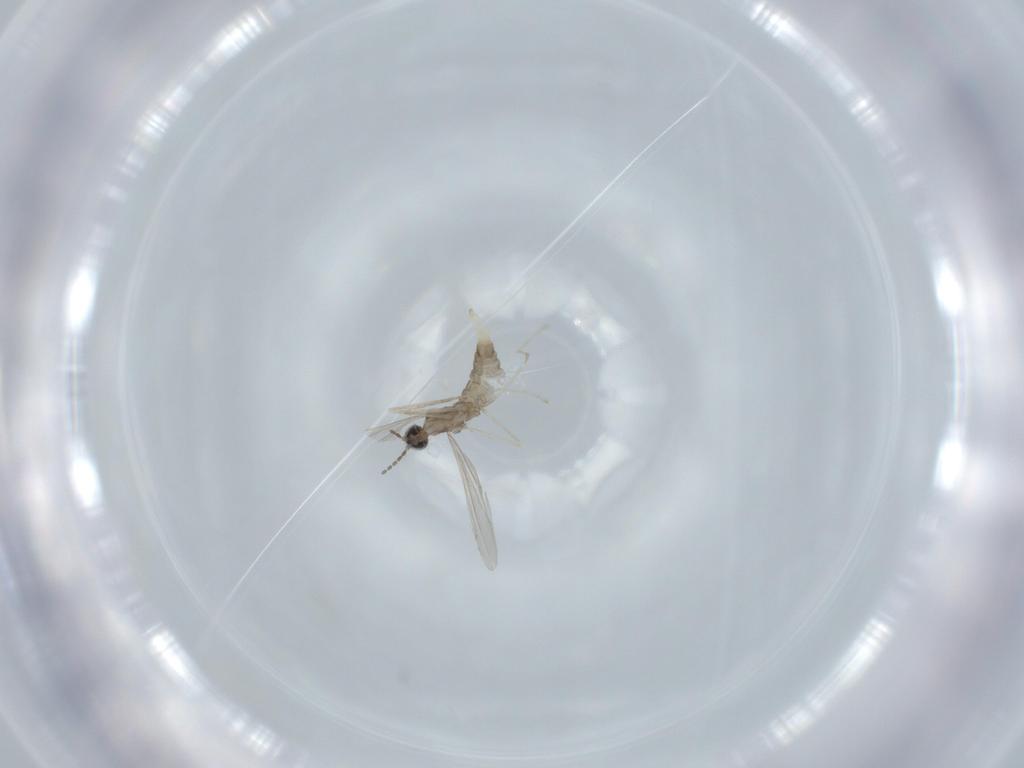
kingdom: Animalia
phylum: Arthropoda
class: Insecta
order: Diptera
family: Cecidomyiidae
